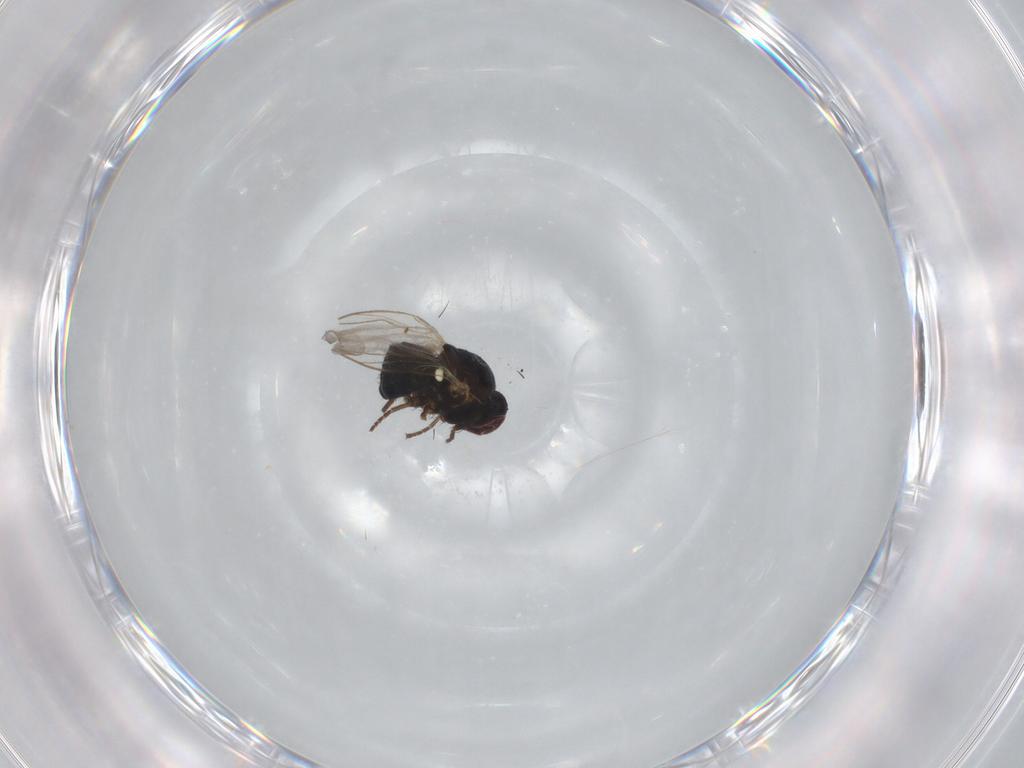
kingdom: Animalia
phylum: Arthropoda
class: Insecta
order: Diptera
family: Agromyzidae
